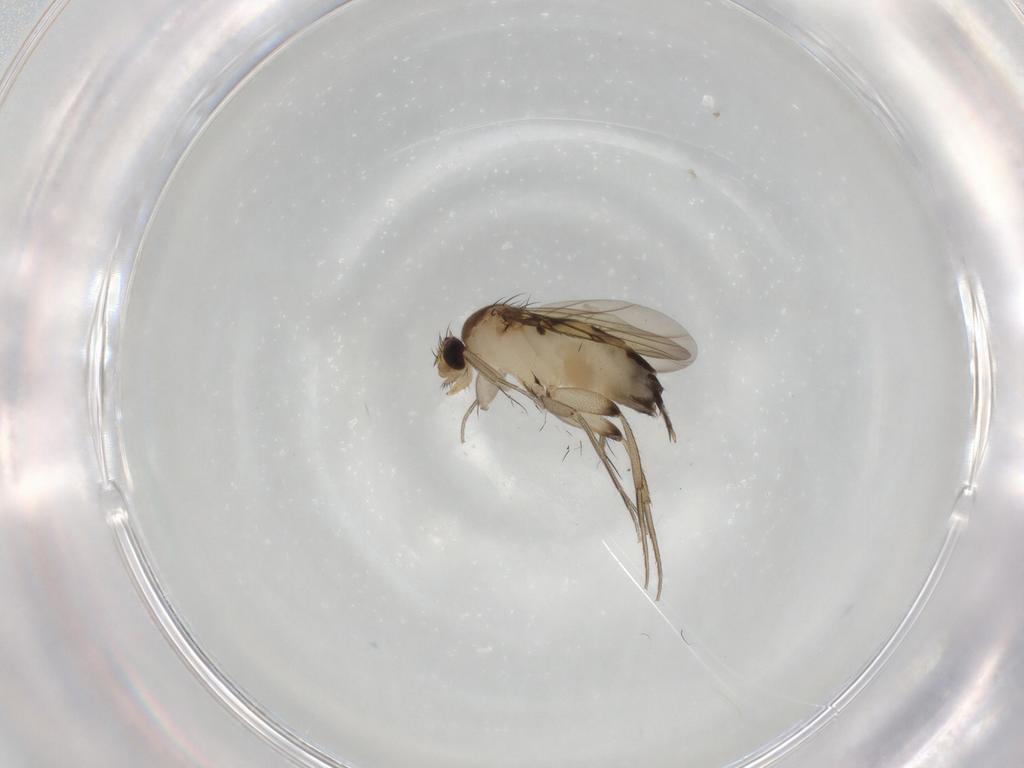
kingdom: Animalia
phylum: Arthropoda
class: Insecta
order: Diptera
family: Phoridae
